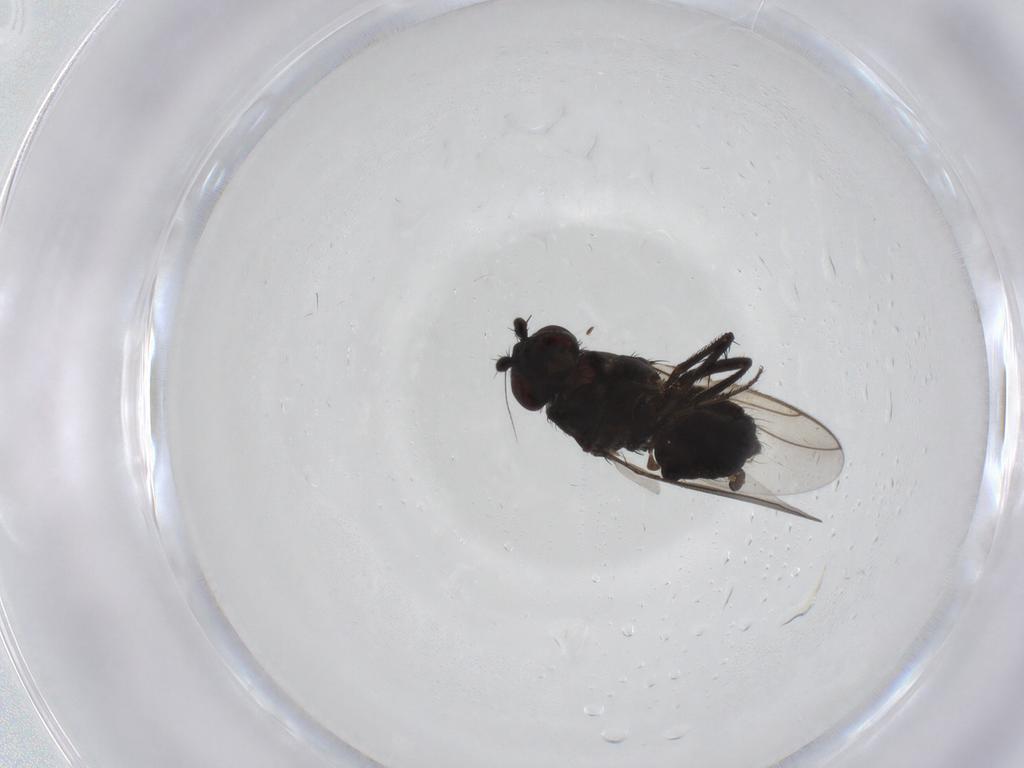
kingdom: Animalia
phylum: Arthropoda
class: Insecta
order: Diptera
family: Sphaeroceridae
